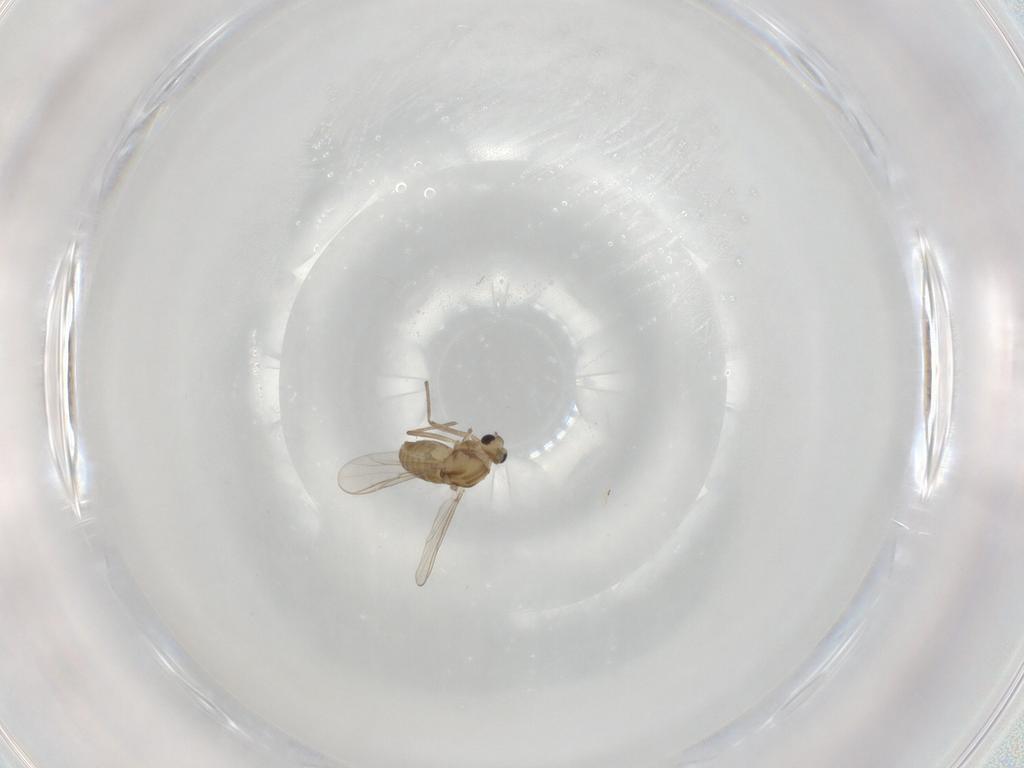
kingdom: Animalia
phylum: Arthropoda
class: Insecta
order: Diptera
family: Chironomidae
